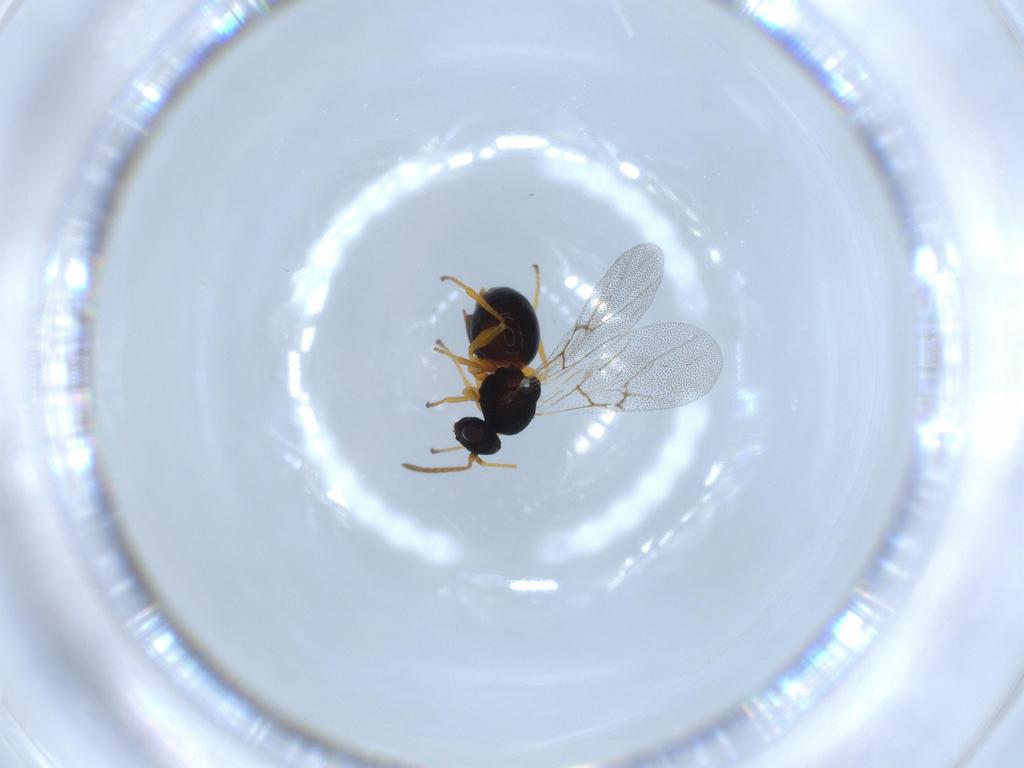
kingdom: Animalia
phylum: Arthropoda
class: Insecta
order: Hymenoptera
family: Cynipidae
